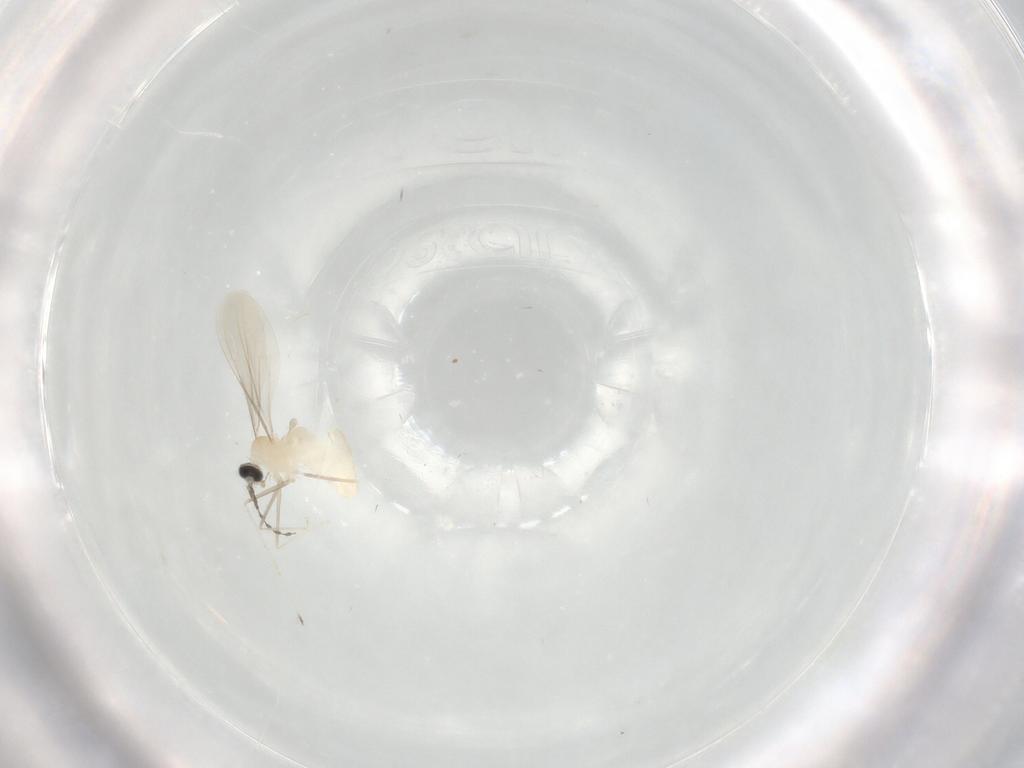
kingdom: Animalia
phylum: Arthropoda
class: Insecta
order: Diptera
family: Cecidomyiidae
